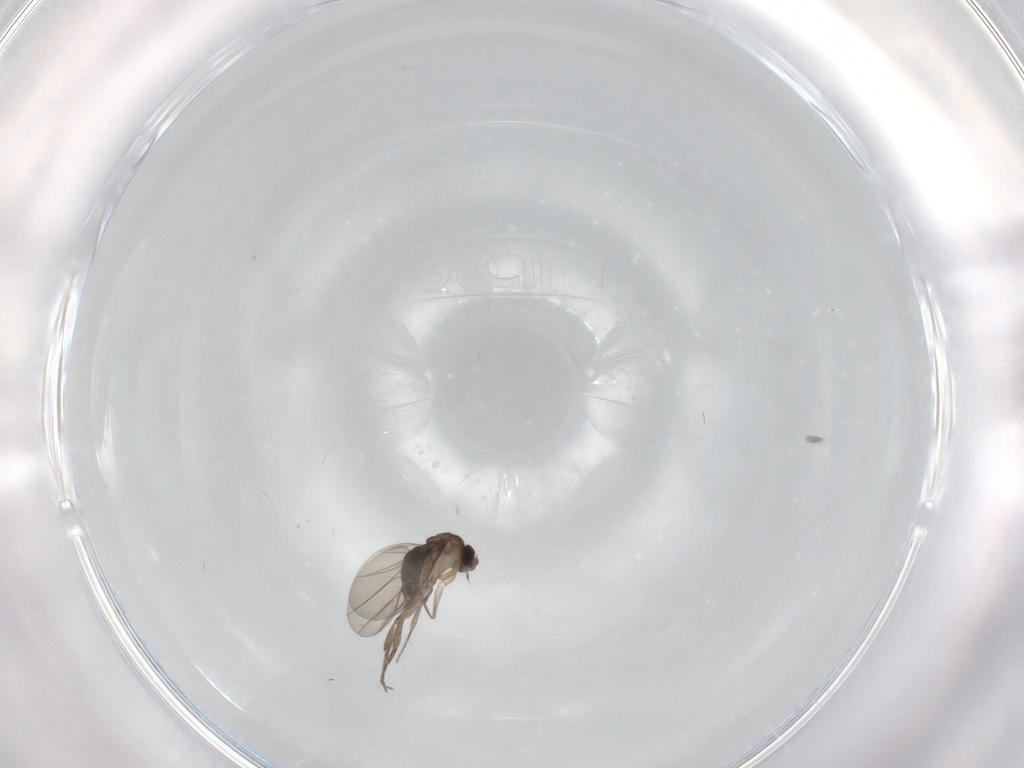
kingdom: Animalia
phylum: Arthropoda
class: Insecta
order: Diptera
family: Phoridae
